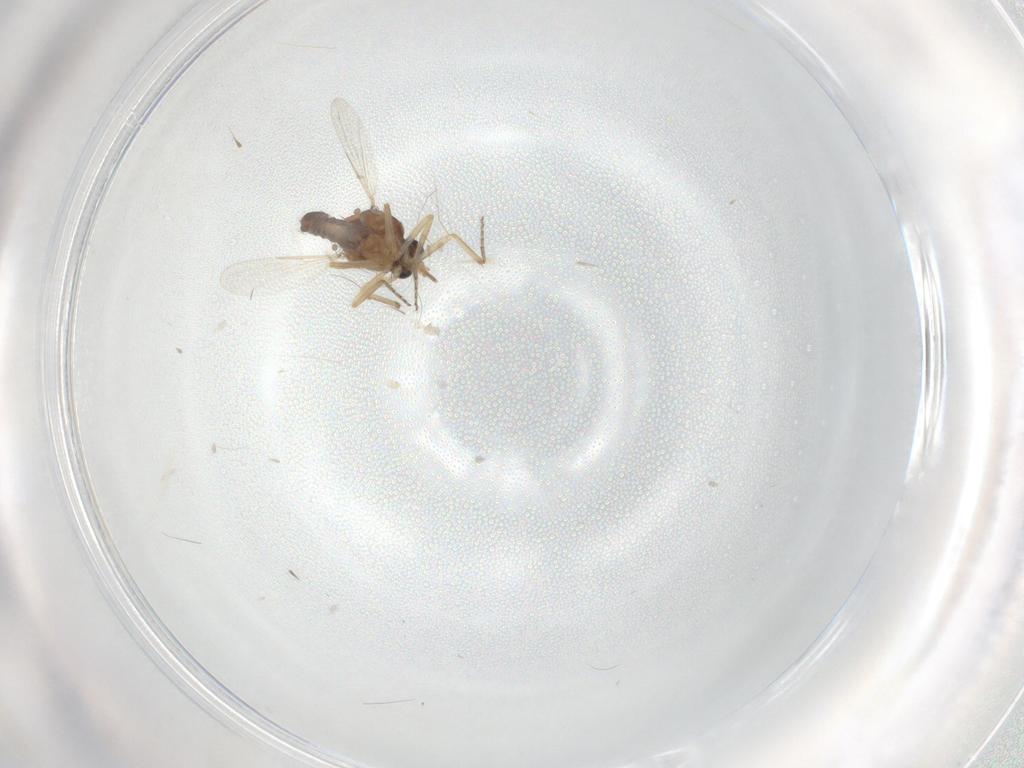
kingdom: Animalia
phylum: Arthropoda
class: Insecta
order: Diptera
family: Ceratopogonidae
